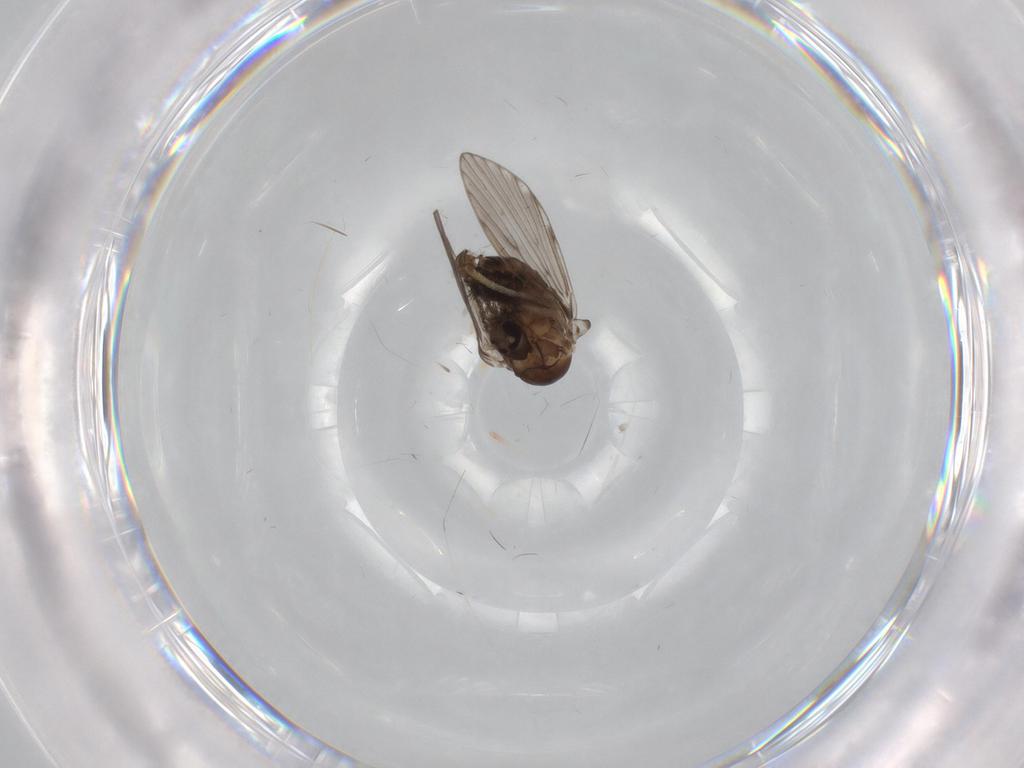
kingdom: Animalia
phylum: Arthropoda
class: Insecta
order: Diptera
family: Psychodidae
